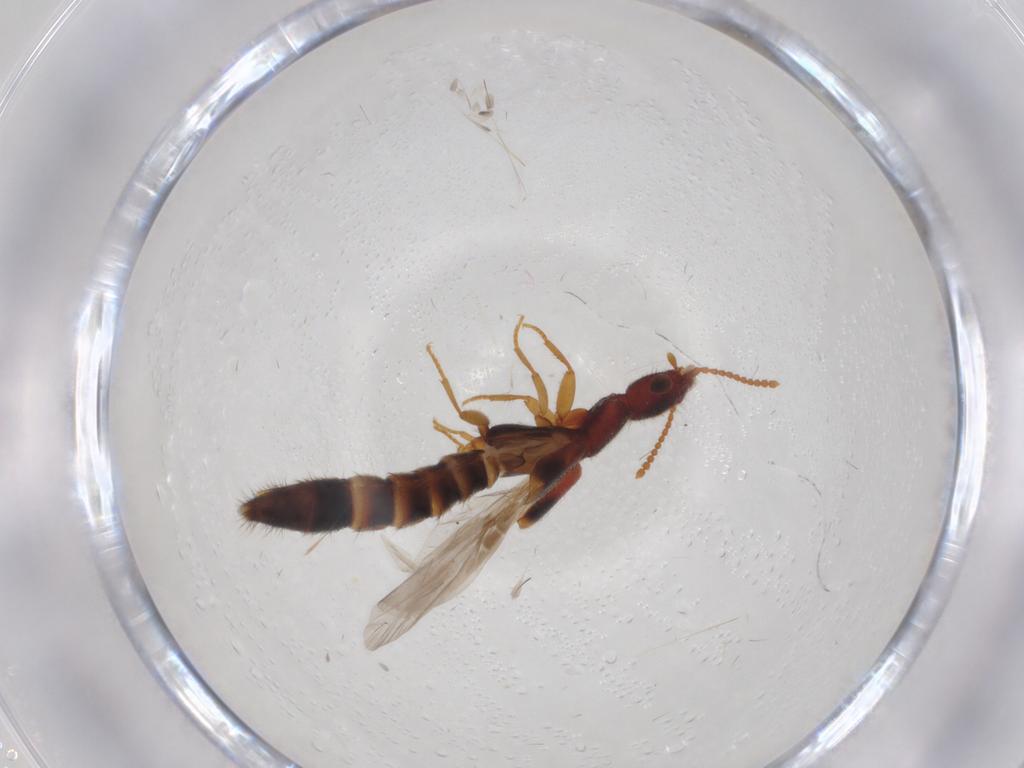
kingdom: Animalia
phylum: Arthropoda
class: Insecta
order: Coleoptera
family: Staphylinidae
